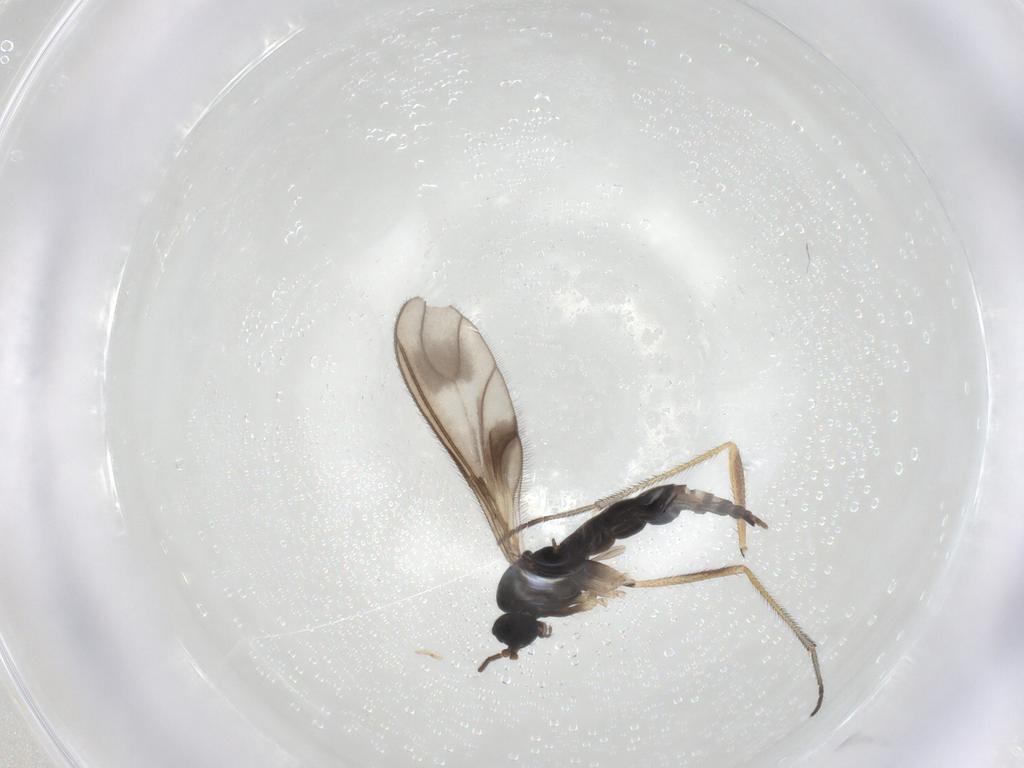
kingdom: Animalia
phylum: Arthropoda
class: Insecta
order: Diptera
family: Sciaridae
